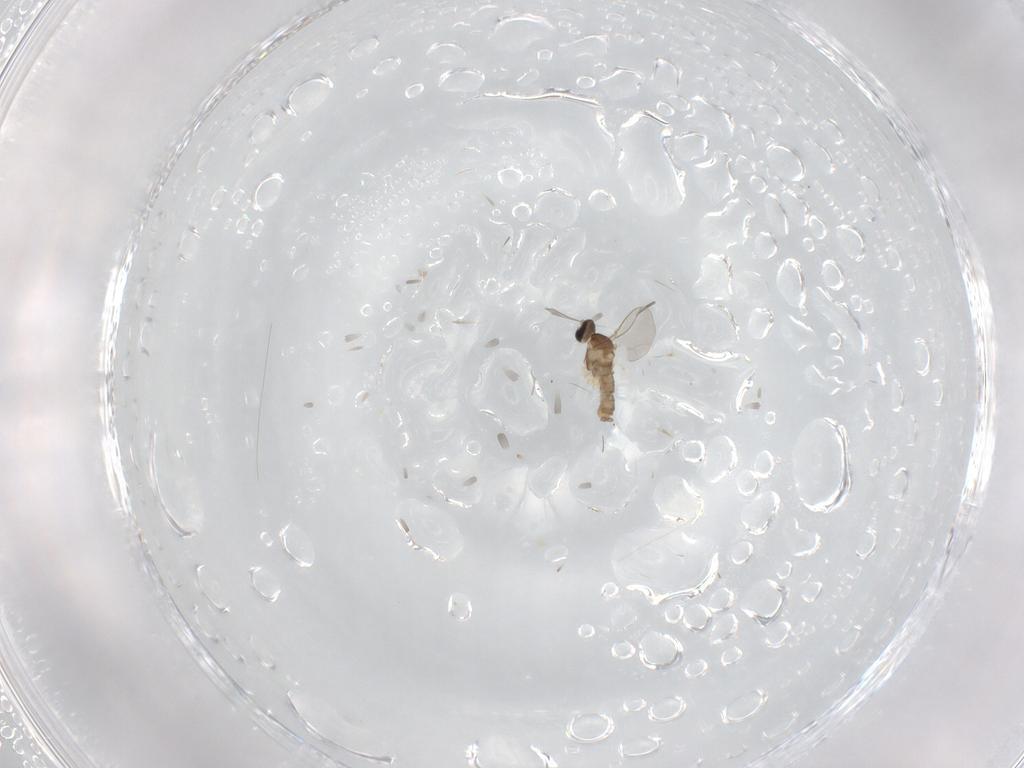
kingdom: Animalia
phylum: Arthropoda
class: Insecta
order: Diptera
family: Cecidomyiidae
